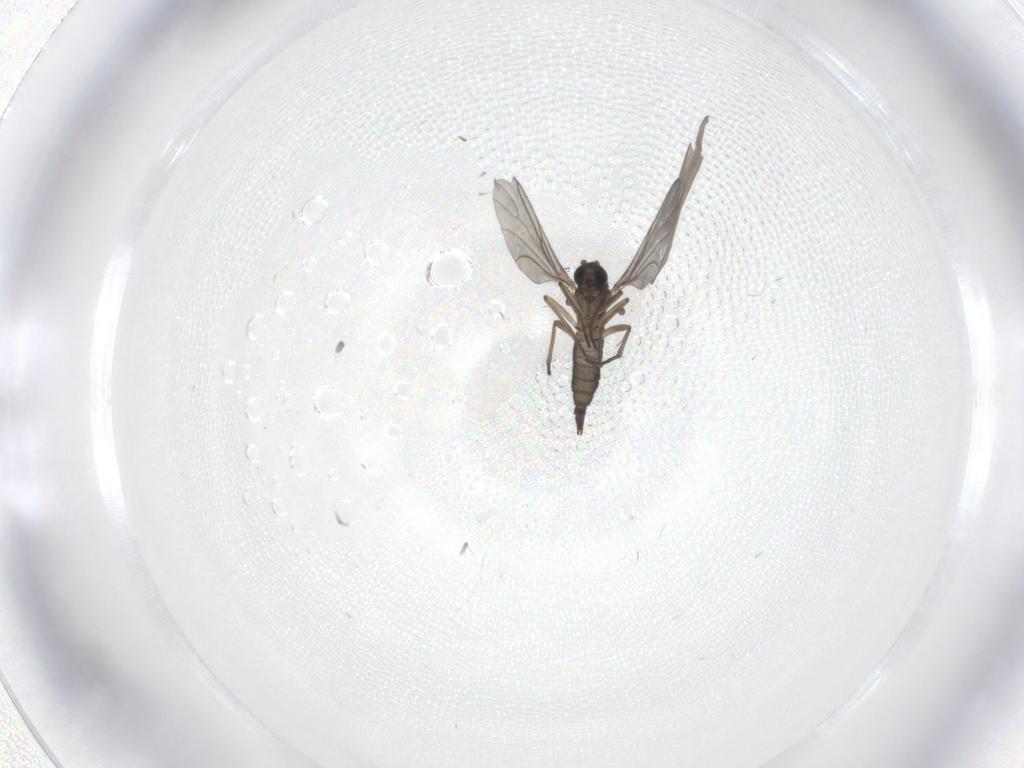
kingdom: Animalia
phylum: Arthropoda
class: Insecta
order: Diptera
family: Sciaridae
